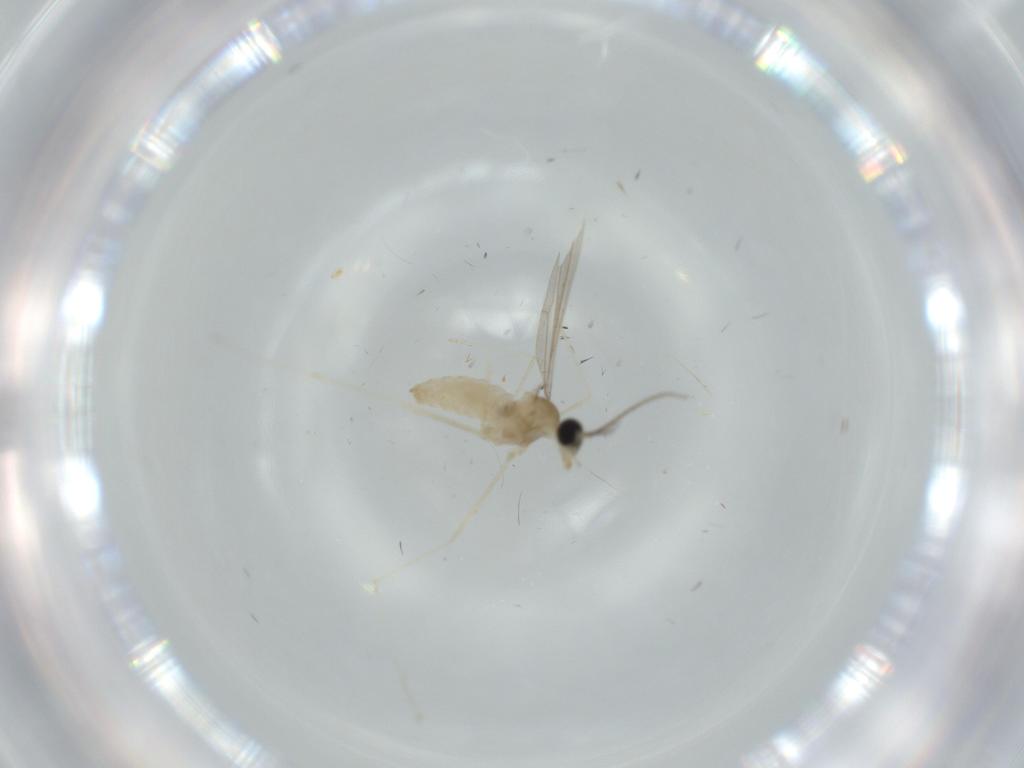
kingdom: Animalia
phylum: Arthropoda
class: Insecta
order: Diptera
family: Cecidomyiidae
